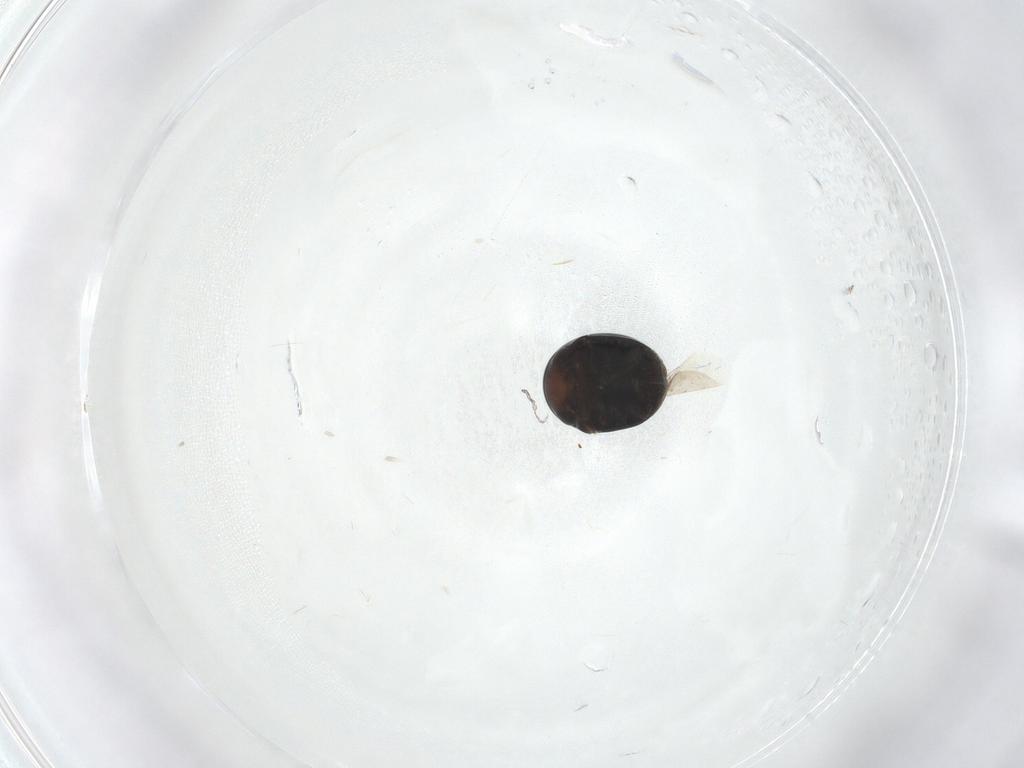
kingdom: Animalia
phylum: Arthropoda
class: Insecta
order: Coleoptera
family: Cybocephalidae
